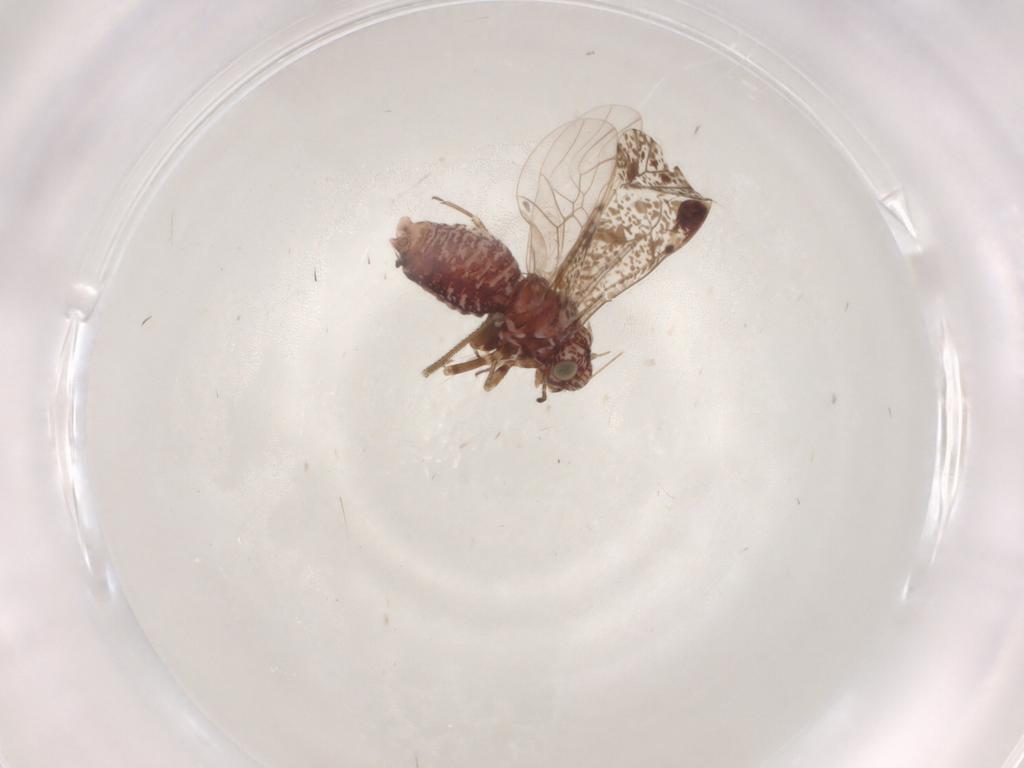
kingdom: Animalia
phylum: Arthropoda
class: Insecta
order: Psocodea
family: Psocidae
